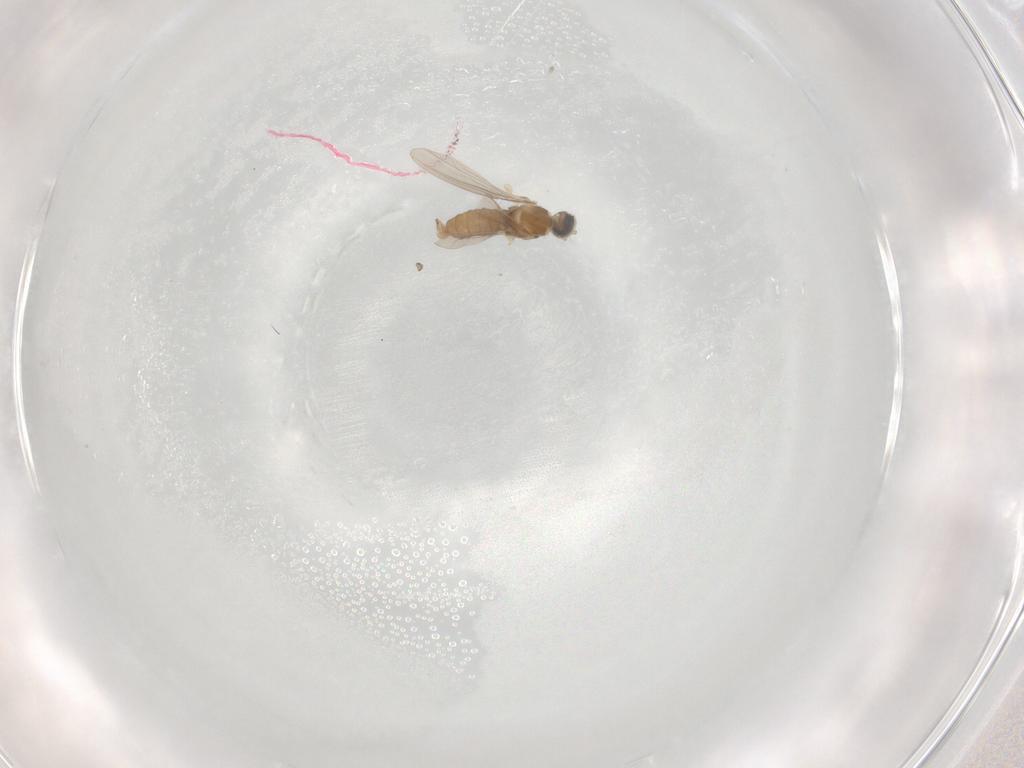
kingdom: Animalia
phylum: Arthropoda
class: Insecta
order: Diptera
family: Cecidomyiidae
